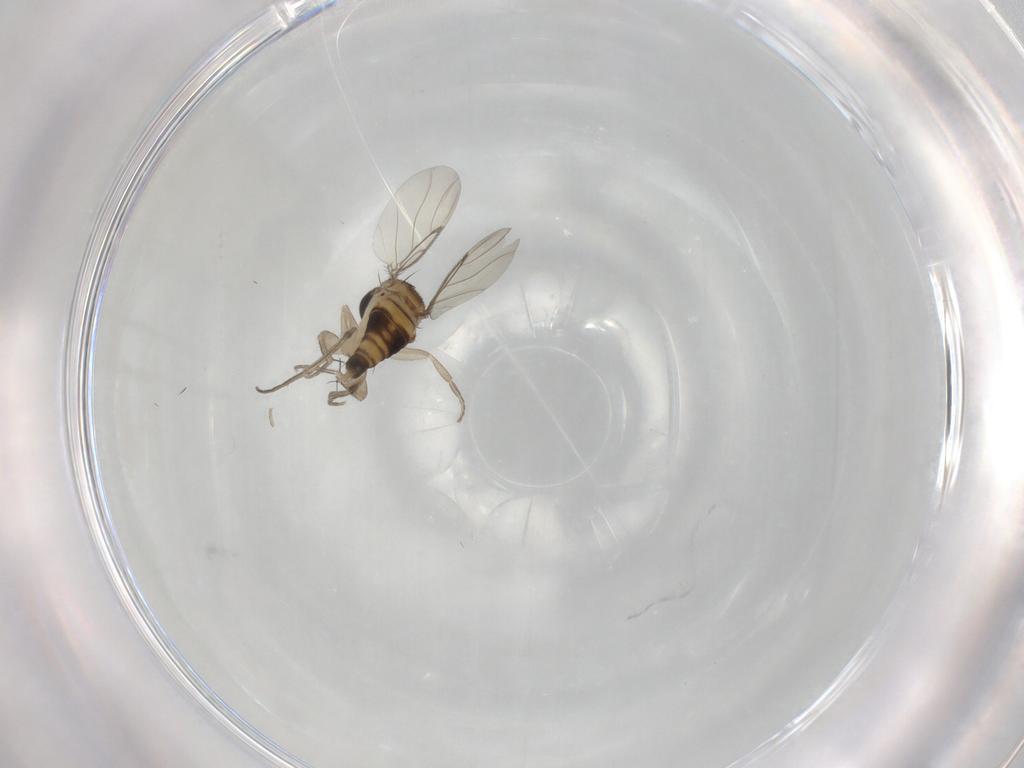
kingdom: Animalia
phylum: Arthropoda
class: Insecta
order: Diptera
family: Phoridae
